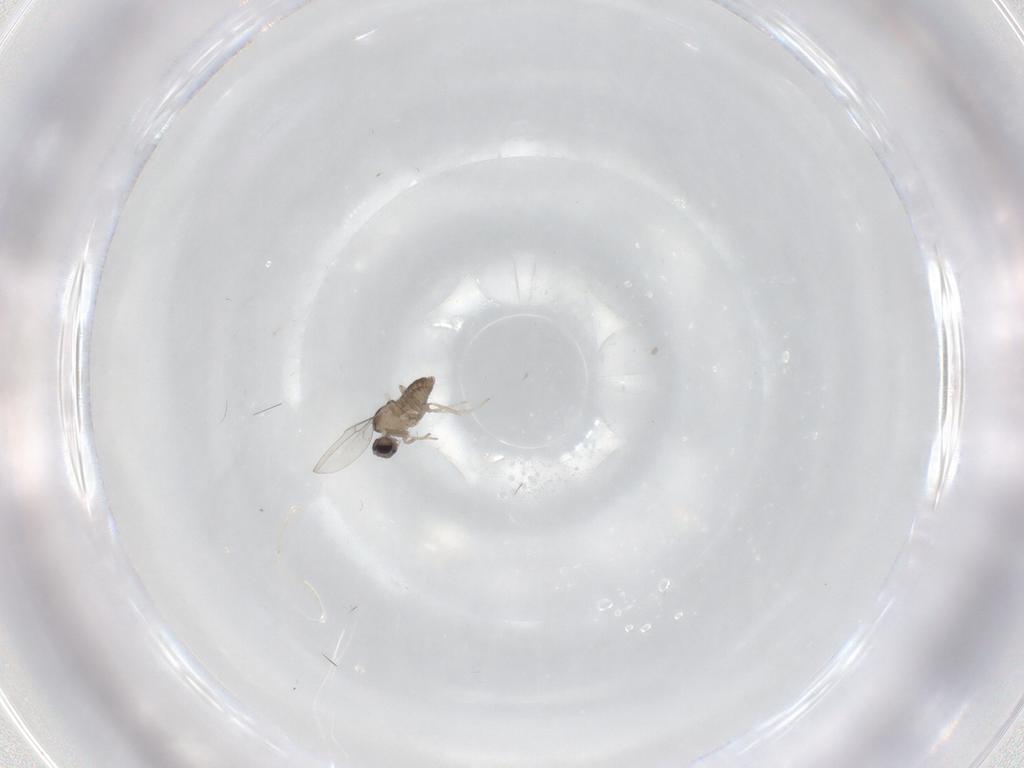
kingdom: Animalia
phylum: Arthropoda
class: Insecta
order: Diptera
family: Cecidomyiidae
